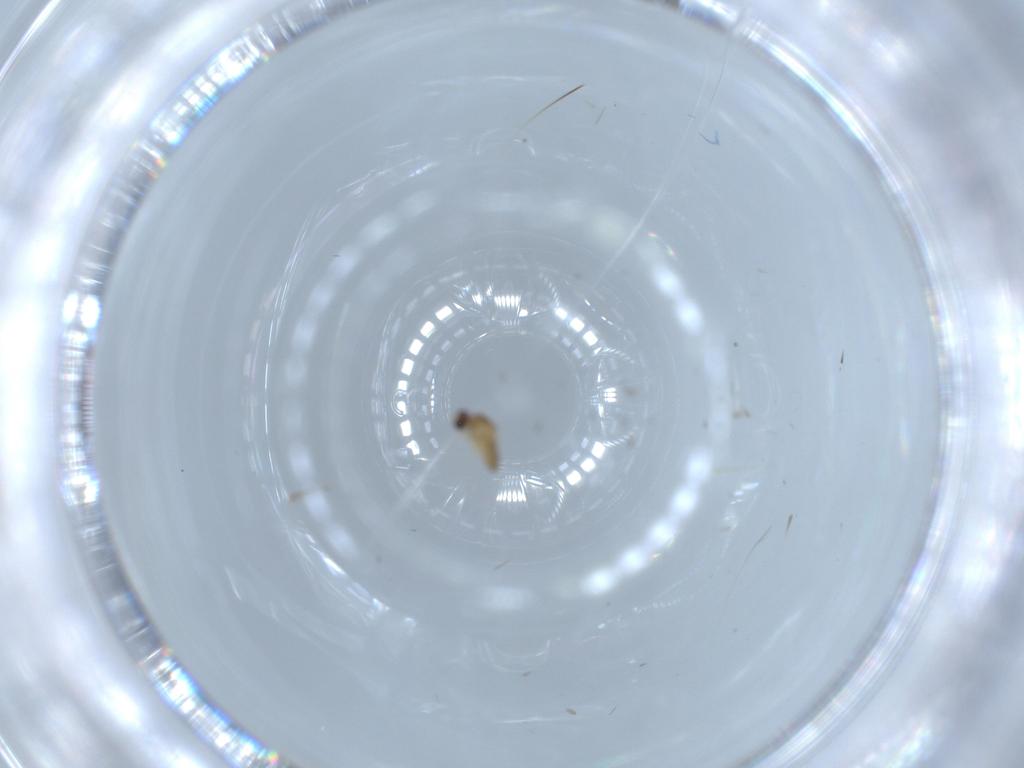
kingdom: Animalia
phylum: Arthropoda
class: Insecta
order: Diptera
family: Cecidomyiidae
